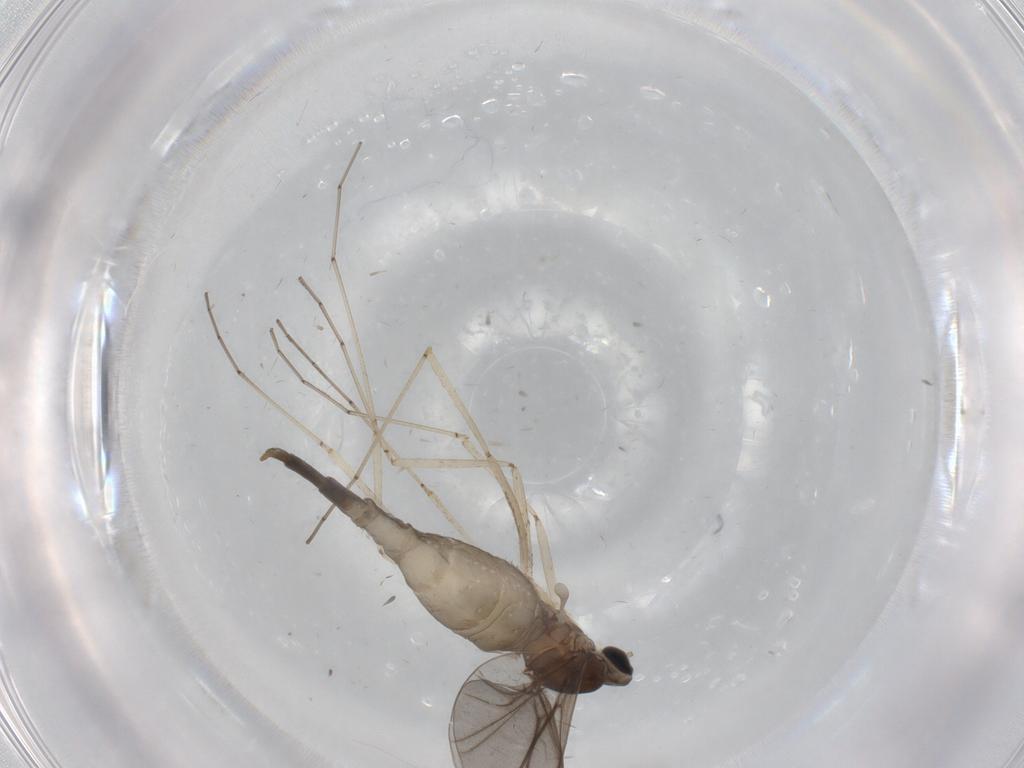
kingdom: Animalia
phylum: Arthropoda
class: Insecta
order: Diptera
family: Cecidomyiidae
